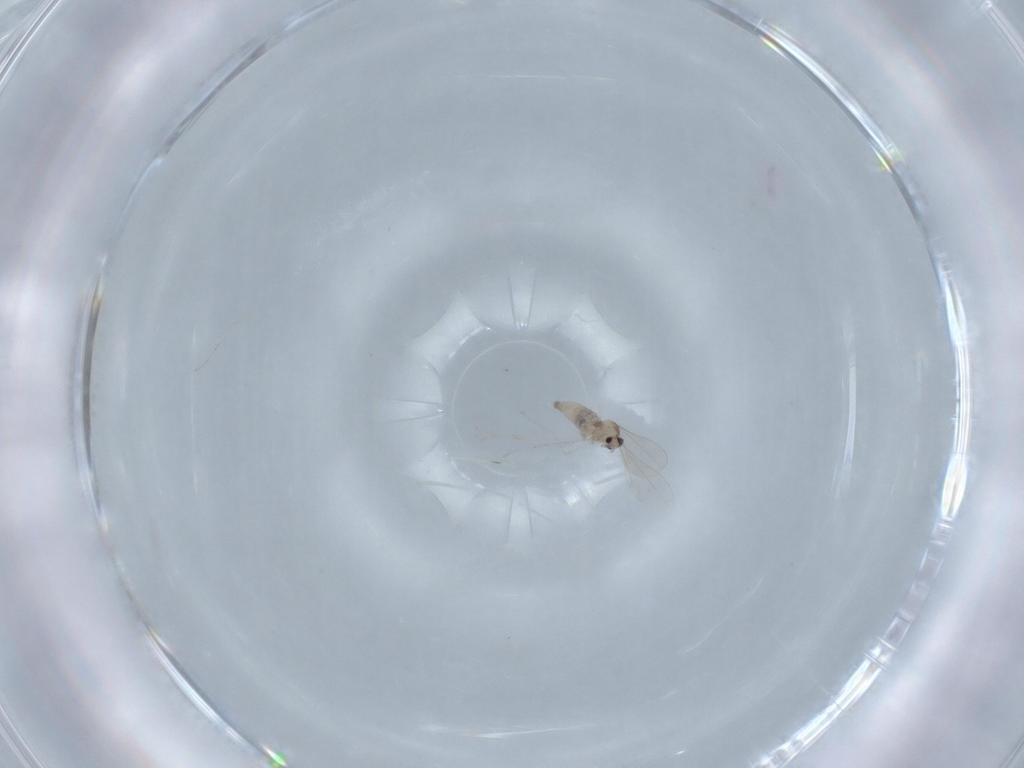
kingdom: Animalia
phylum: Arthropoda
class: Insecta
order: Diptera
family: Cecidomyiidae
